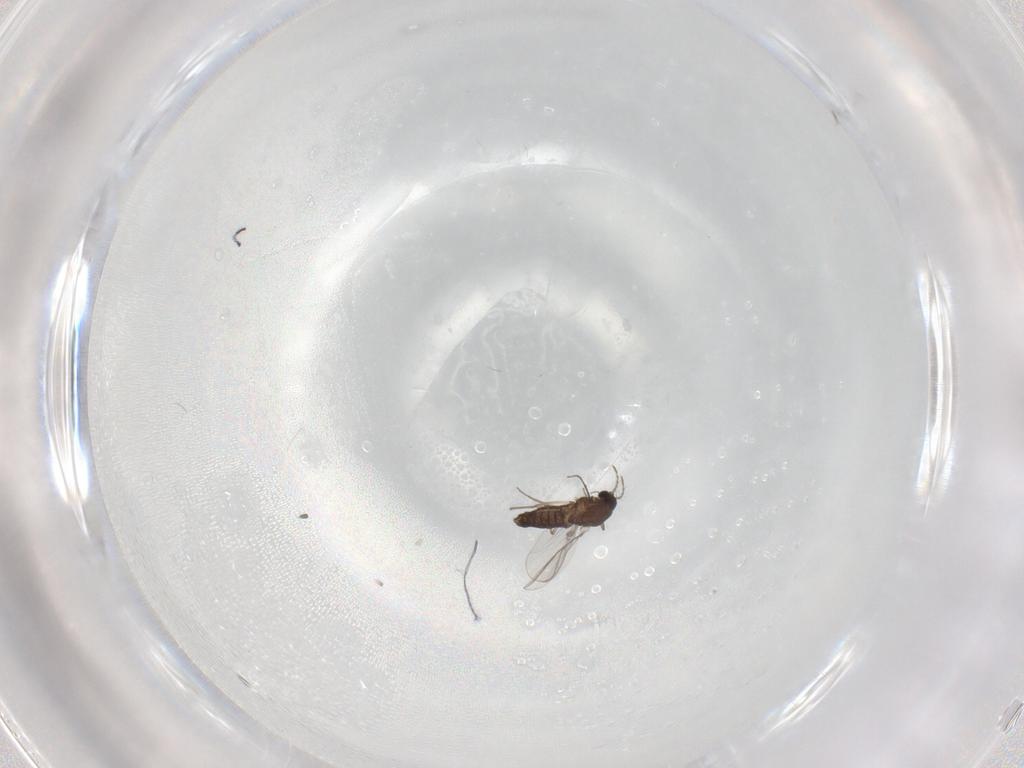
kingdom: Animalia
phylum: Arthropoda
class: Insecta
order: Diptera
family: Chironomidae
